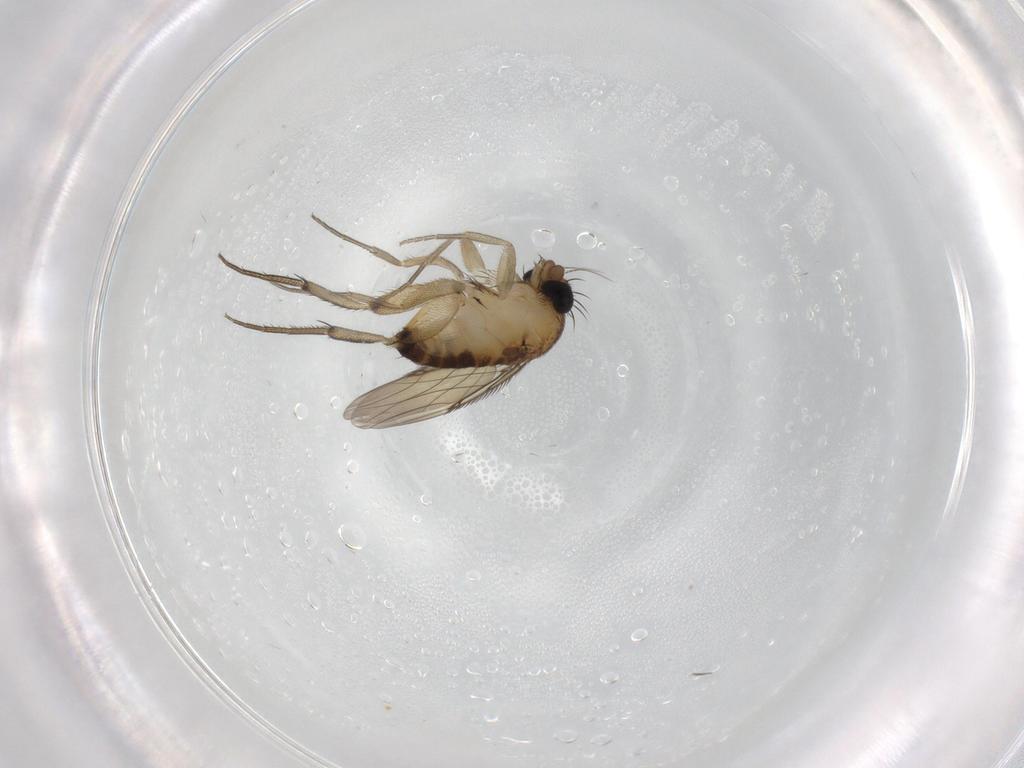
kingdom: Animalia
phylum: Arthropoda
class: Insecta
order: Diptera
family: Phoridae
